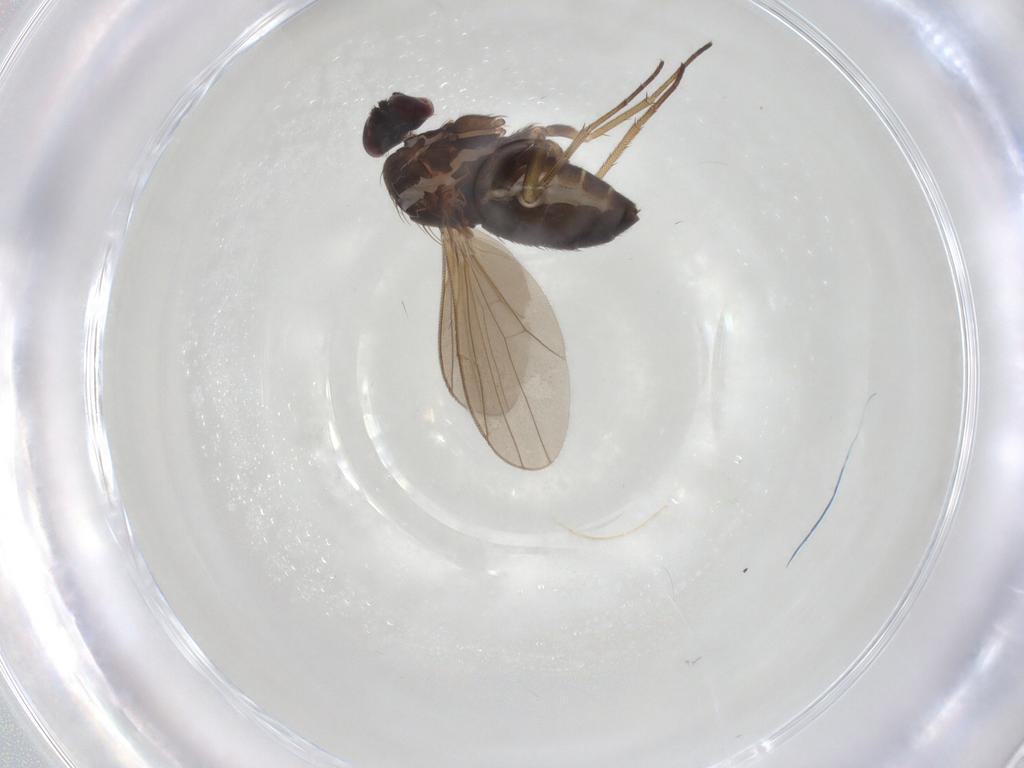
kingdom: Animalia
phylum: Arthropoda
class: Insecta
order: Diptera
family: Dolichopodidae
